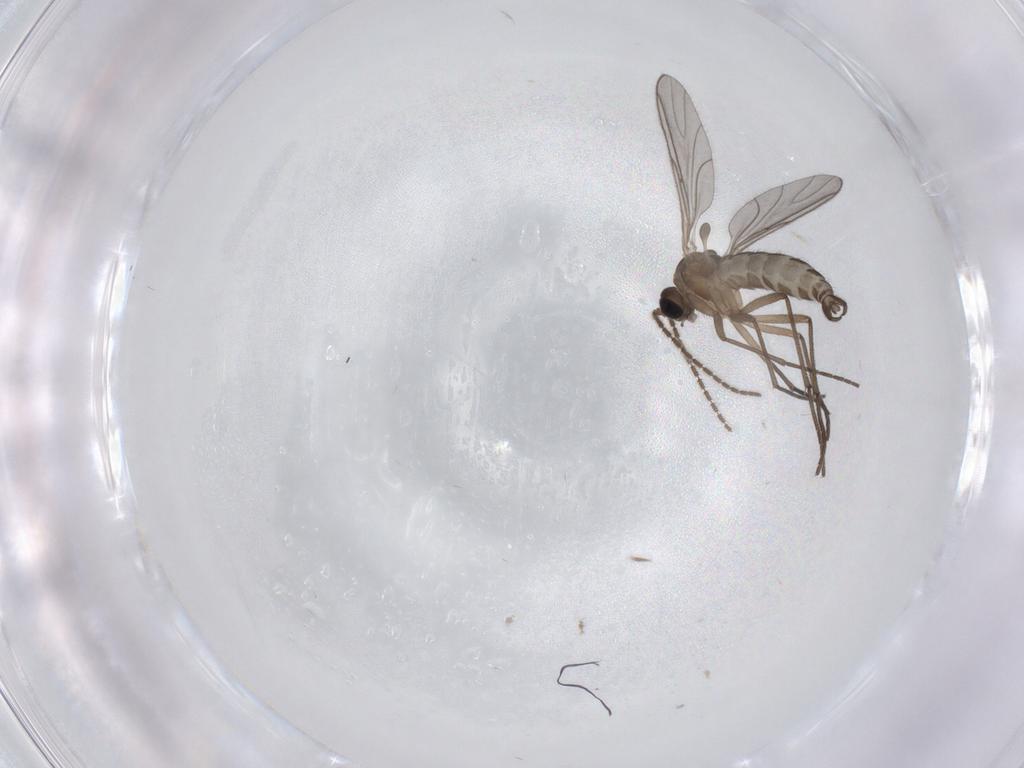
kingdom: Animalia
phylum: Arthropoda
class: Insecta
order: Diptera
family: Sciaridae
